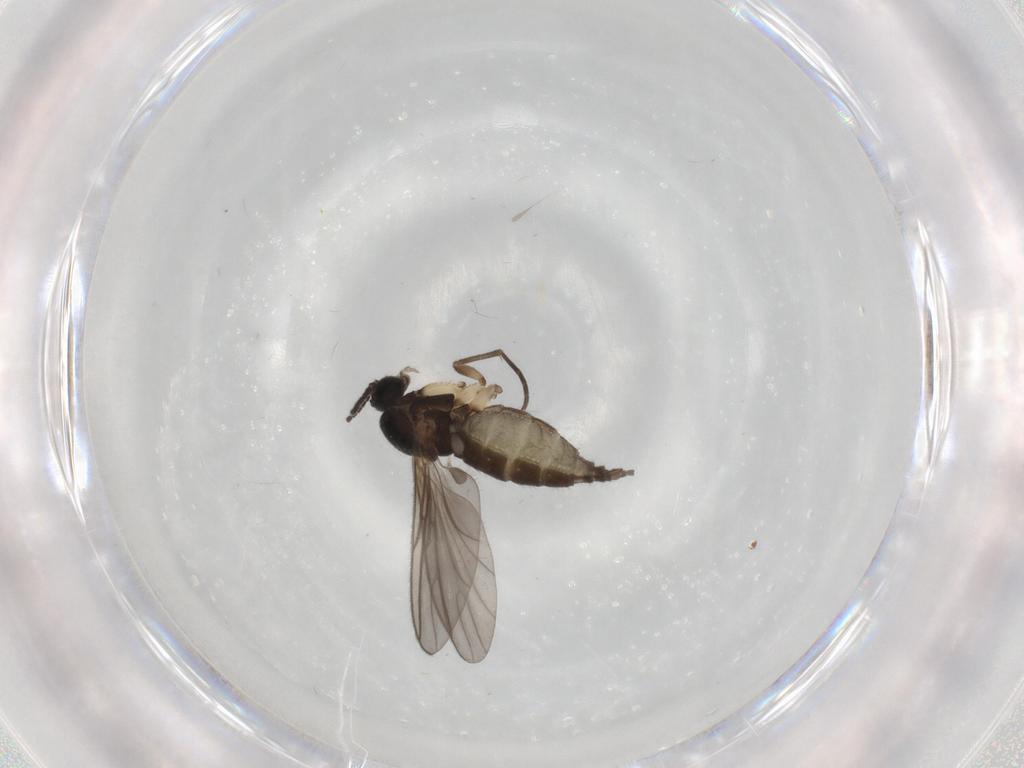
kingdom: Animalia
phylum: Arthropoda
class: Insecta
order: Diptera
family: Sciaridae
